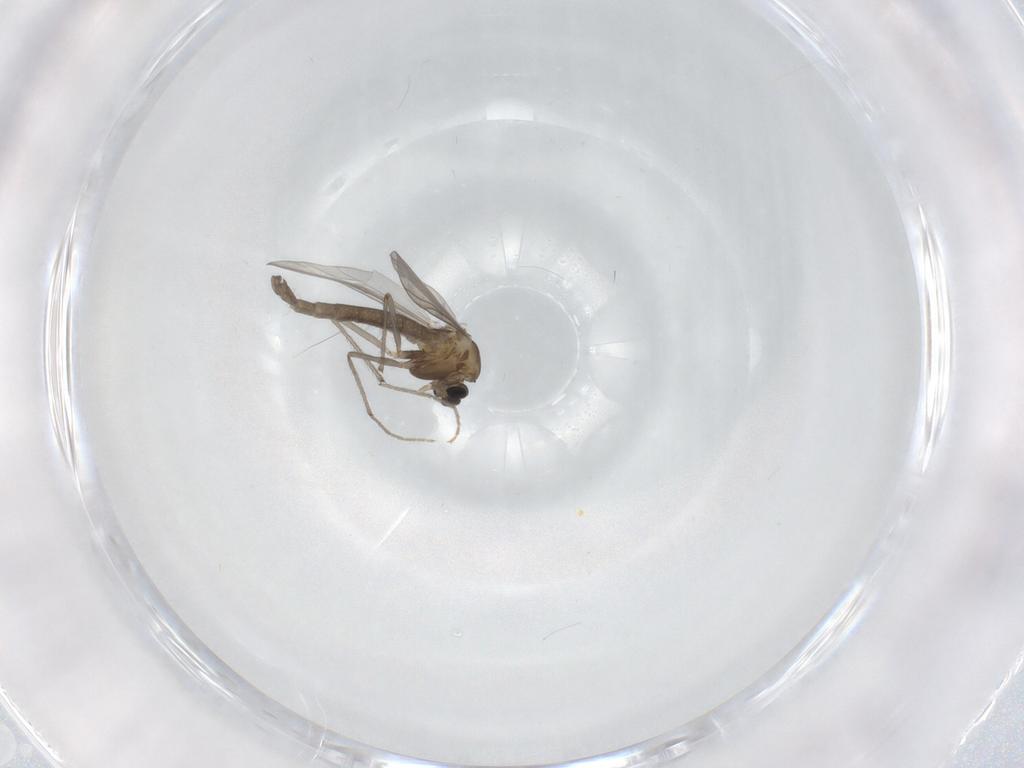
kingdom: Animalia
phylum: Arthropoda
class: Insecta
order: Diptera
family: Chironomidae
